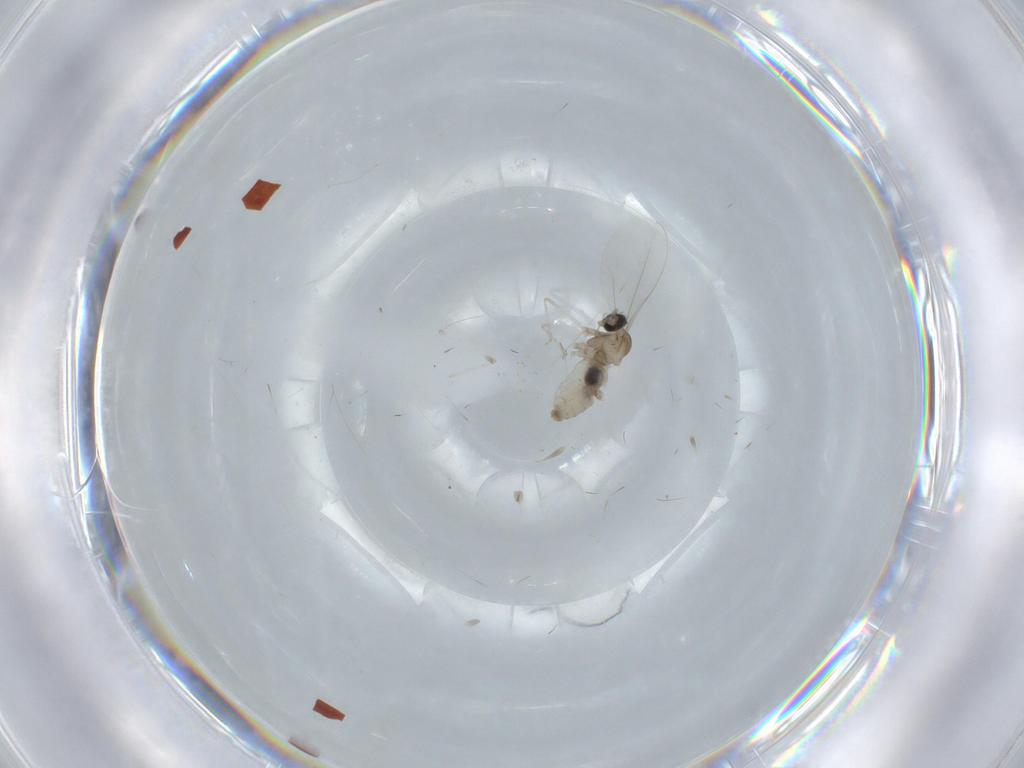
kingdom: Animalia
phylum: Arthropoda
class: Insecta
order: Diptera
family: Cecidomyiidae
